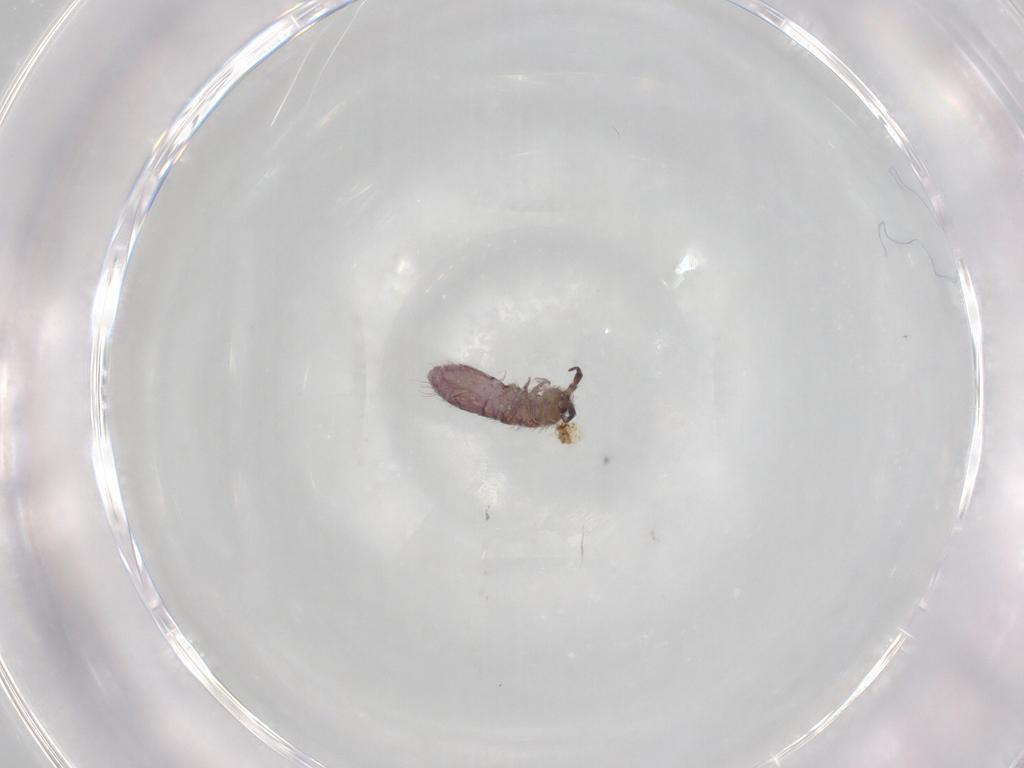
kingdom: Animalia
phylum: Arthropoda
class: Collembola
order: Entomobryomorpha
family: Isotomidae
